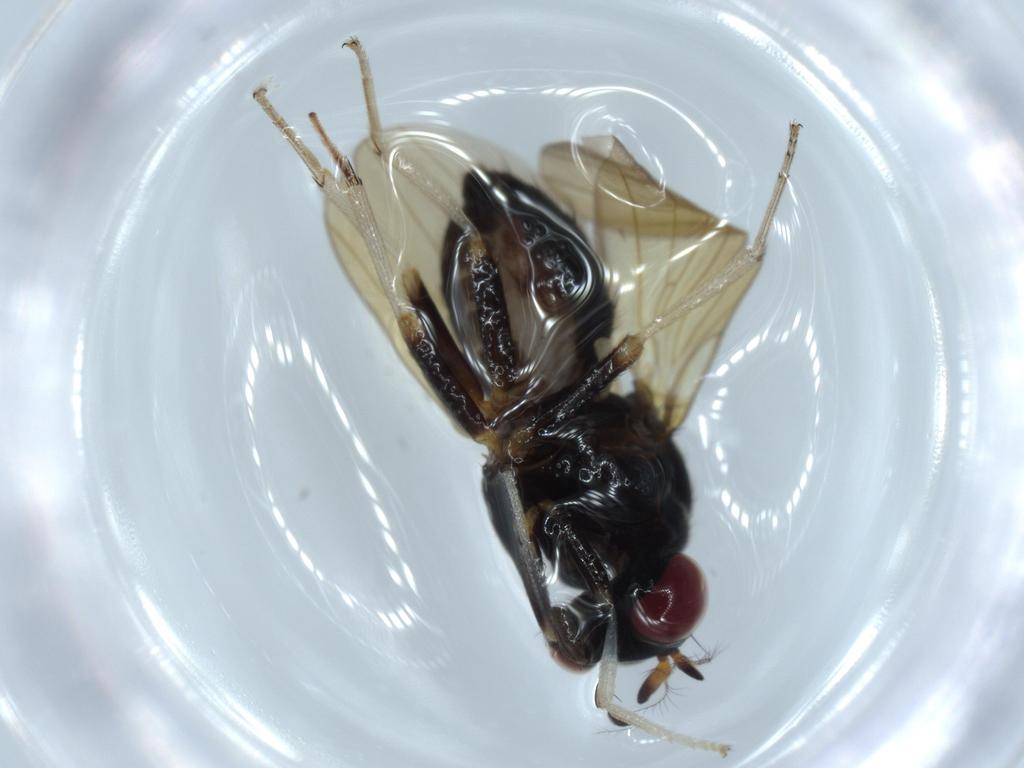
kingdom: Animalia
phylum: Arthropoda
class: Insecta
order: Diptera
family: Lauxaniidae
